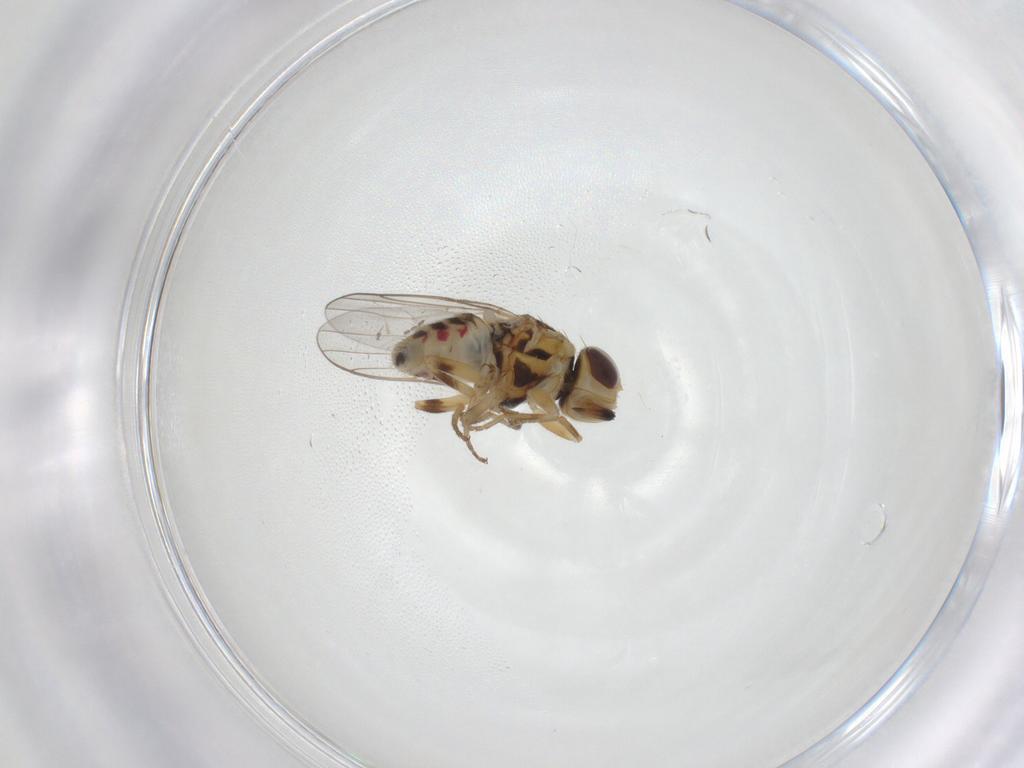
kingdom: Animalia
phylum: Arthropoda
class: Insecta
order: Diptera
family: Chloropidae
